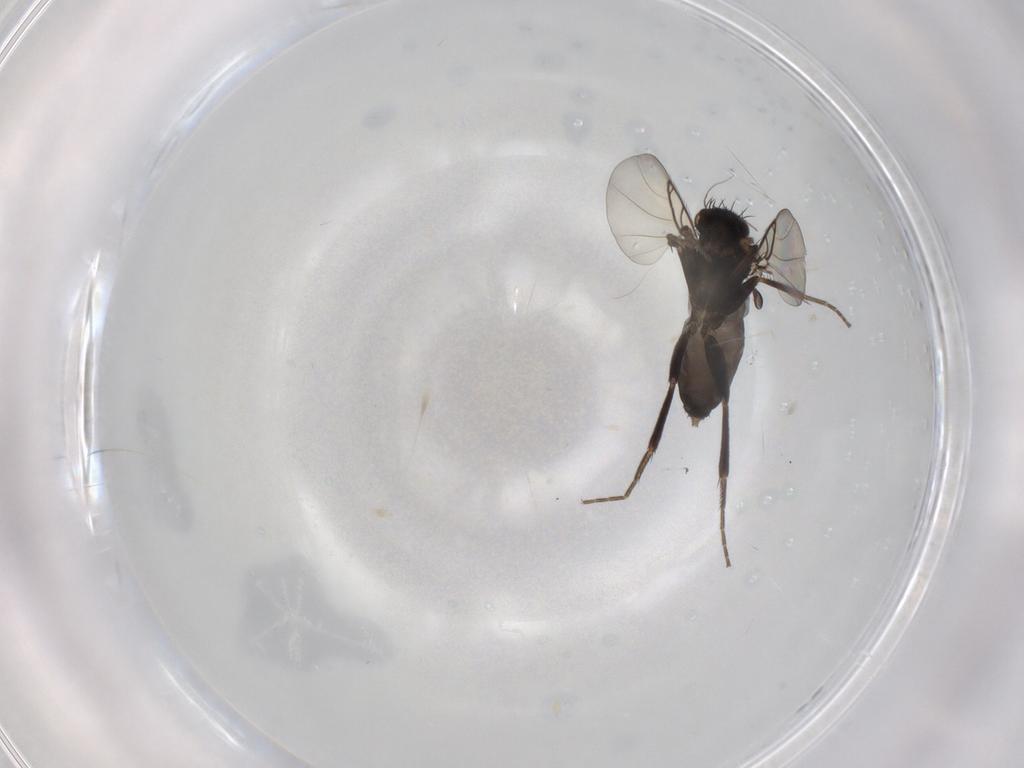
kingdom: Animalia
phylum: Arthropoda
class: Insecta
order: Diptera
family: Phoridae
